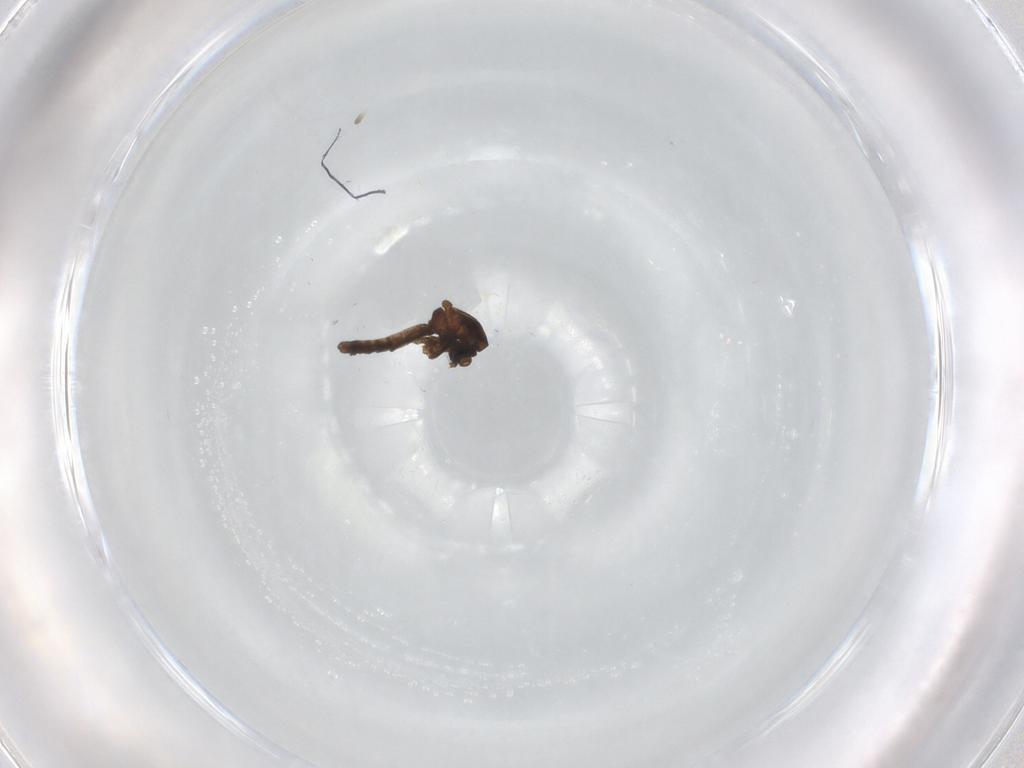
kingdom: Animalia
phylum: Arthropoda
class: Insecta
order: Diptera
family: Ceratopogonidae
